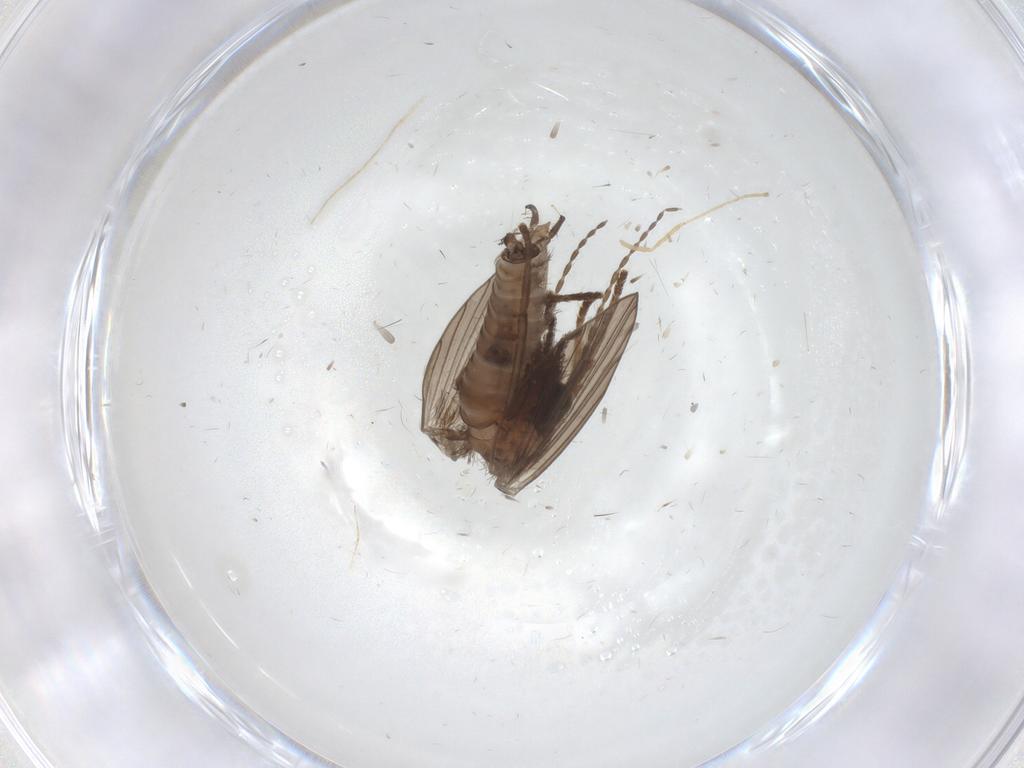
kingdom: Animalia
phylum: Arthropoda
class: Insecta
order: Diptera
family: Psychodidae
